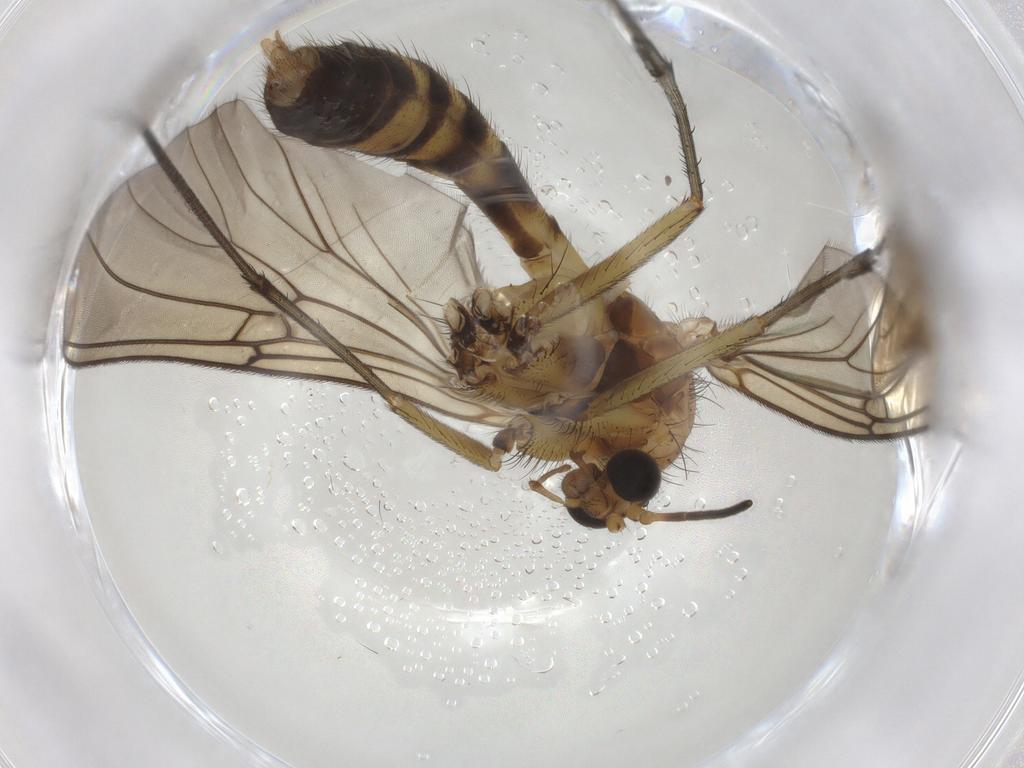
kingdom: Animalia
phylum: Arthropoda
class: Insecta
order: Diptera
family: Mycetophilidae
